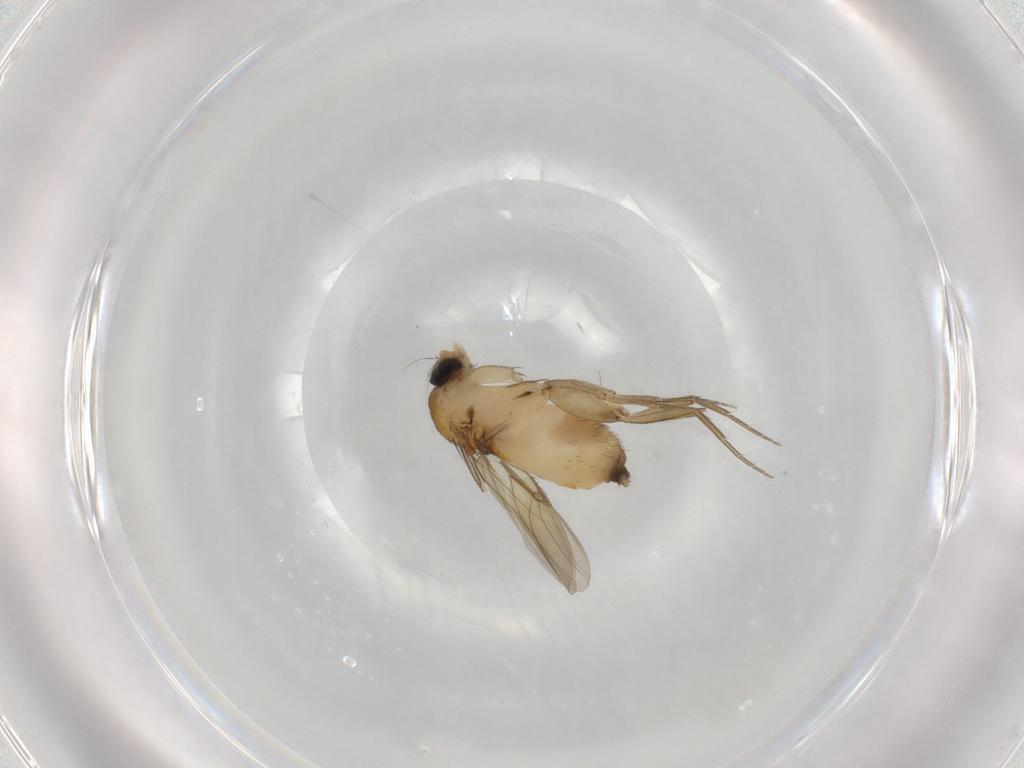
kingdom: Animalia
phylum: Arthropoda
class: Insecta
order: Diptera
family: Phoridae
